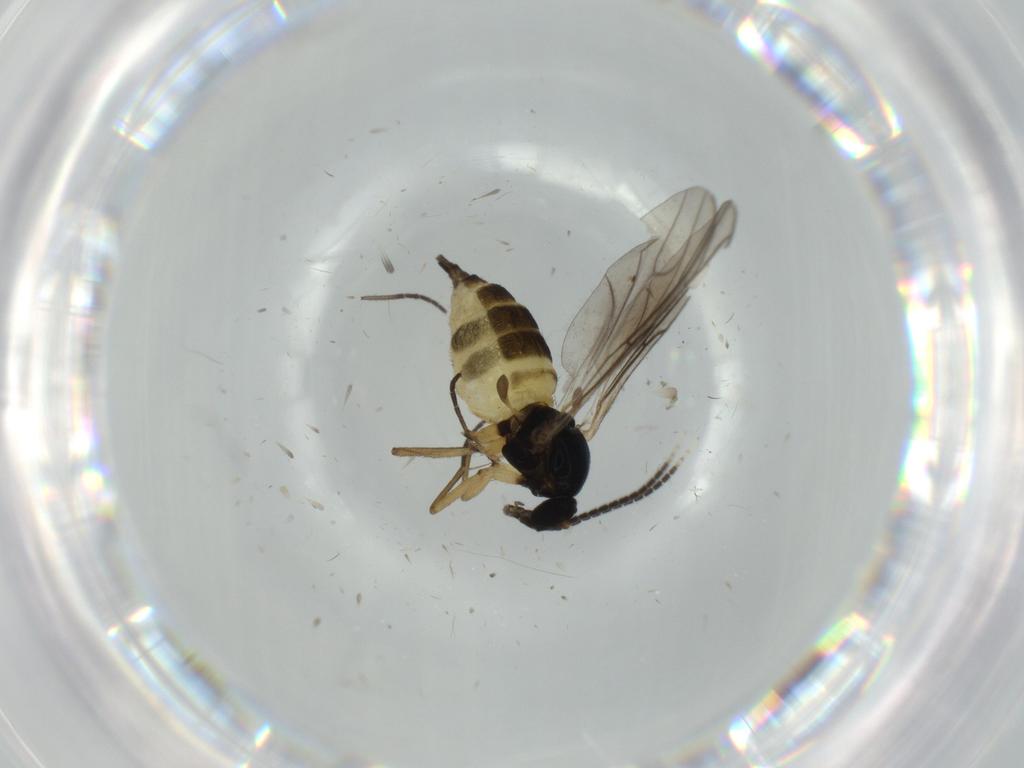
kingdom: Animalia
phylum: Arthropoda
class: Insecta
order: Diptera
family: Sciaridae
